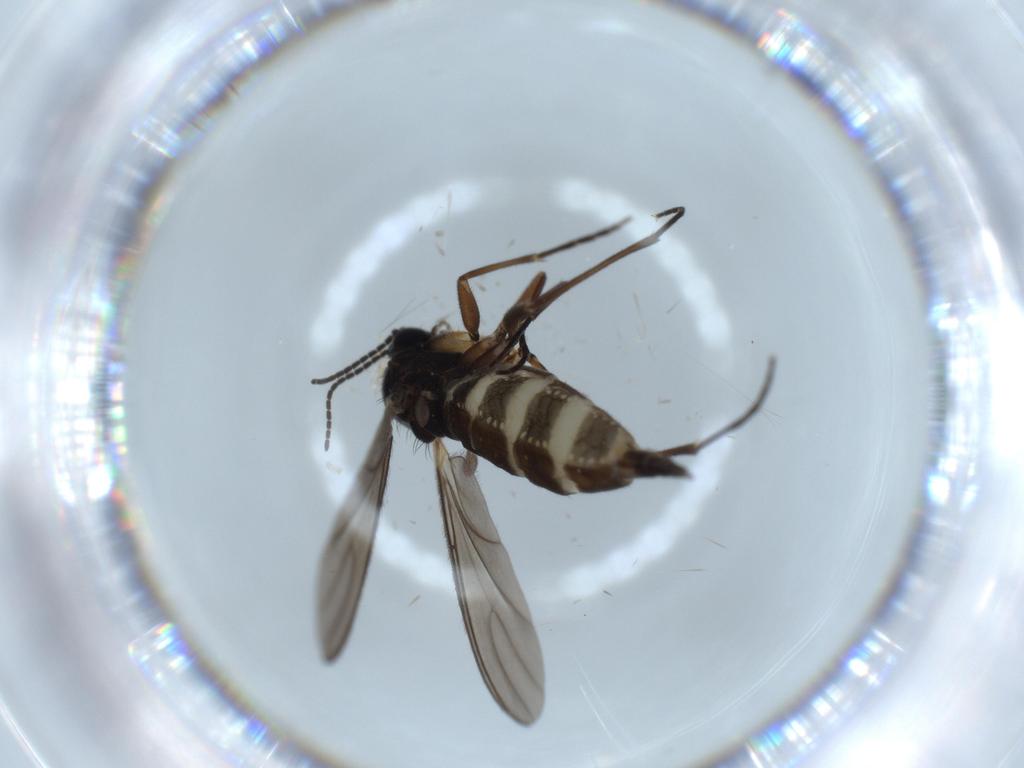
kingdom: Animalia
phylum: Arthropoda
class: Insecta
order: Diptera
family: Sciaridae
